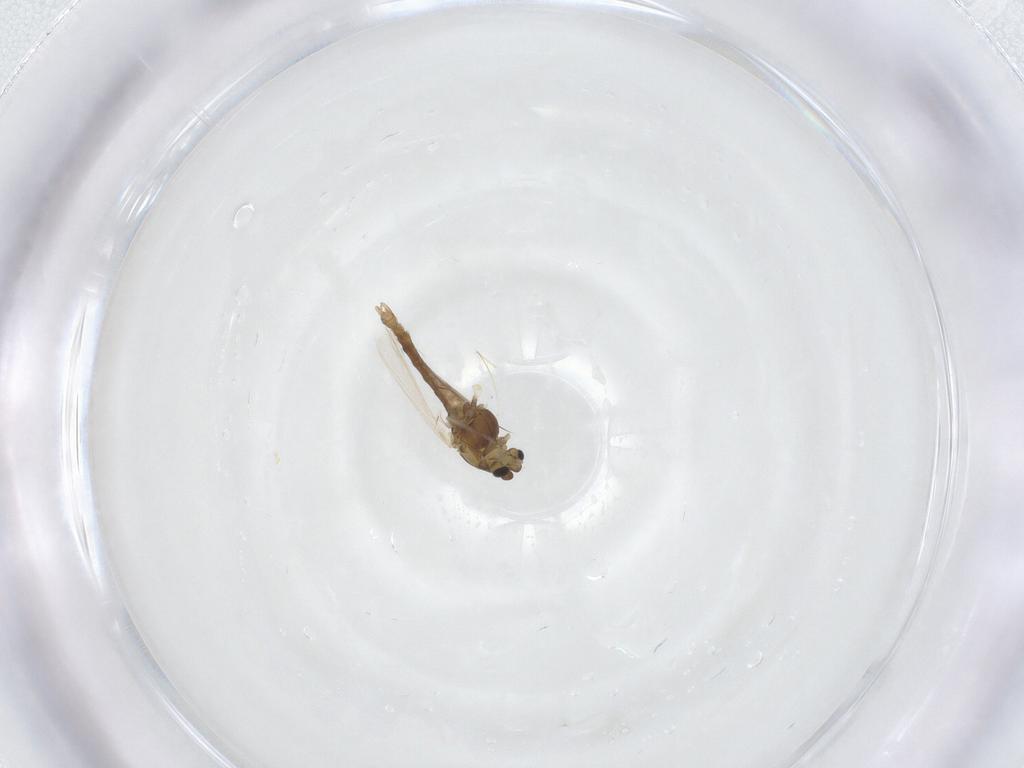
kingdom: Animalia
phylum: Arthropoda
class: Insecta
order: Diptera
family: Chironomidae
